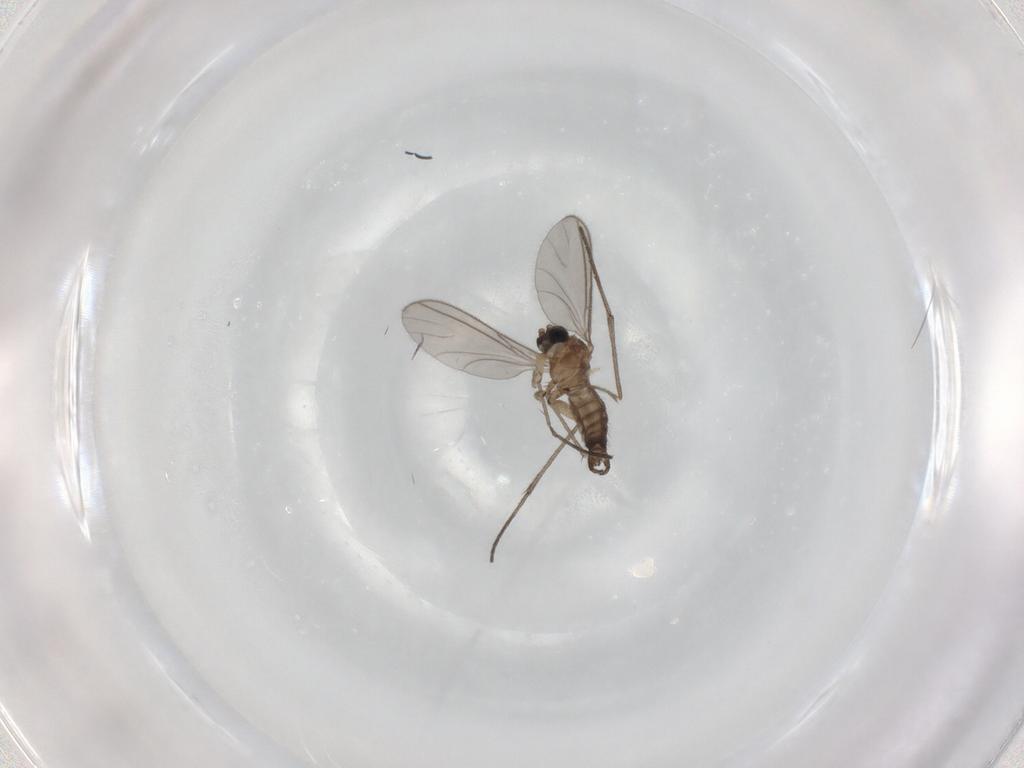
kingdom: Animalia
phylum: Arthropoda
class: Insecta
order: Diptera
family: Sciaridae
